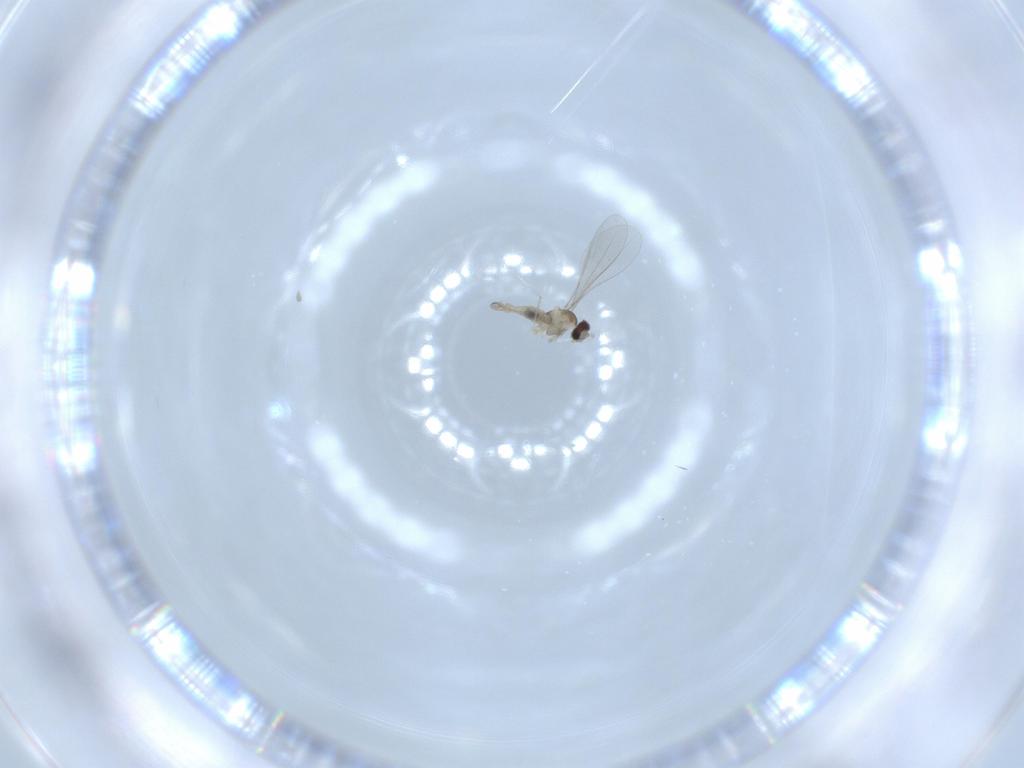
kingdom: Animalia
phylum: Arthropoda
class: Insecta
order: Diptera
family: Cecidomyiidae
